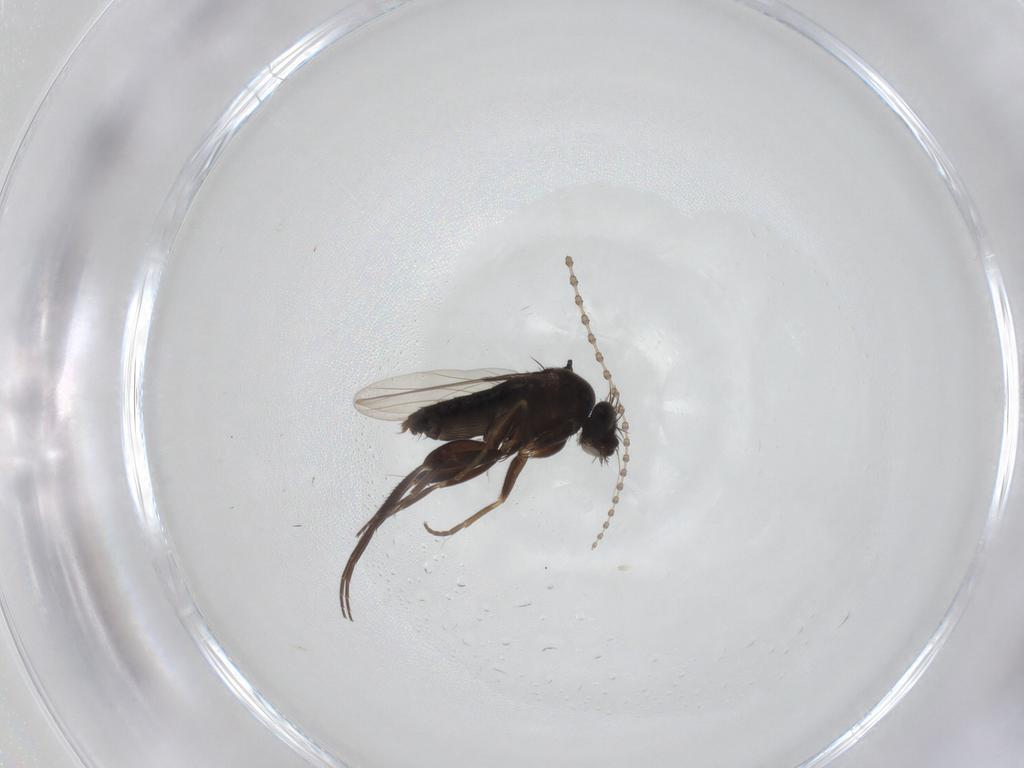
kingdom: Animalia
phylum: Arthropoda
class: Insecta
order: Diptera
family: Phoridae
